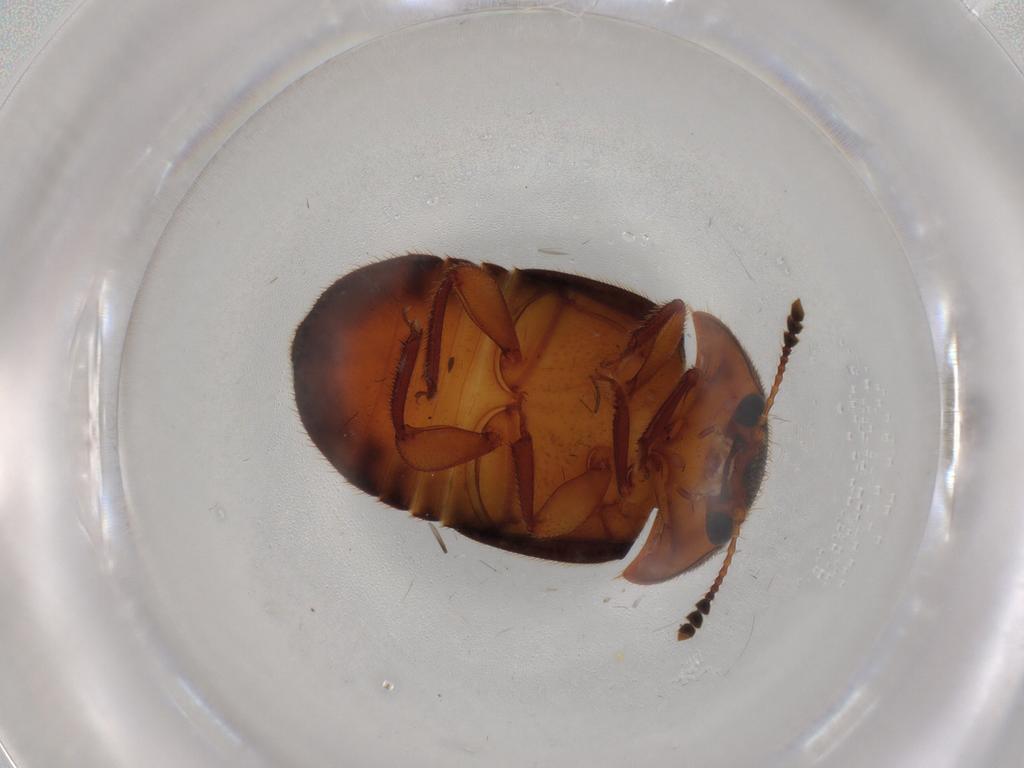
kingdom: Animalia
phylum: Arthropoda
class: Insecta
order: Coleoptera
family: Nitidulidae
